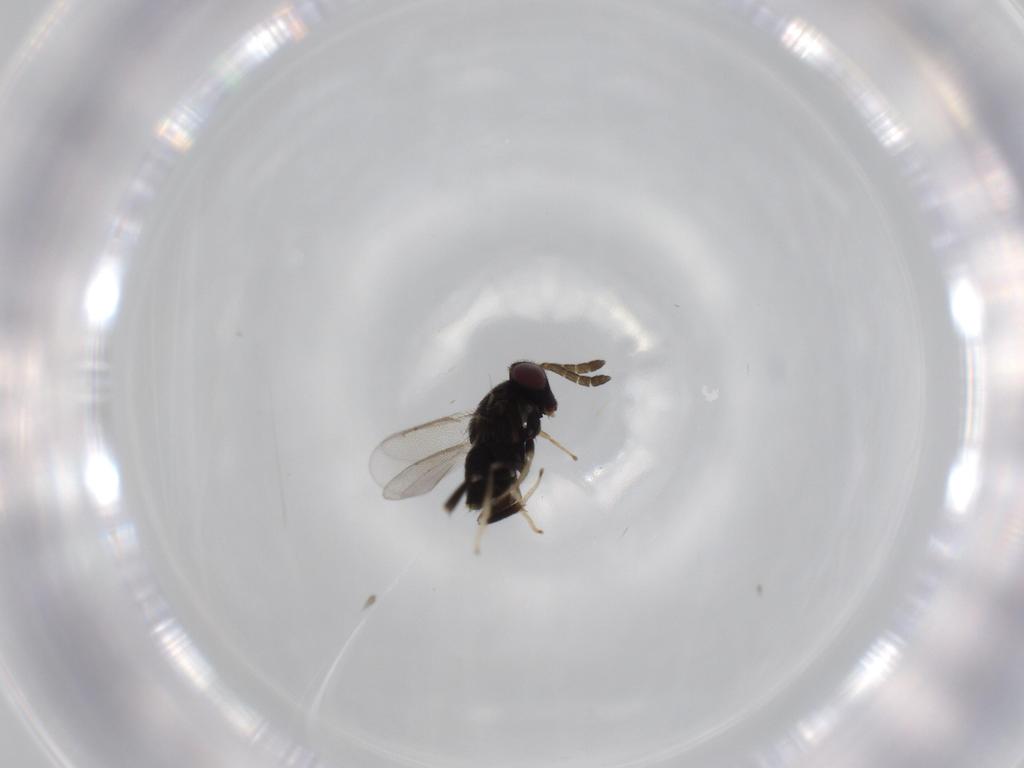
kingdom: Animalia
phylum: Arthropoda
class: Insecta
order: Hymenoptera
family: Aphelinidae
